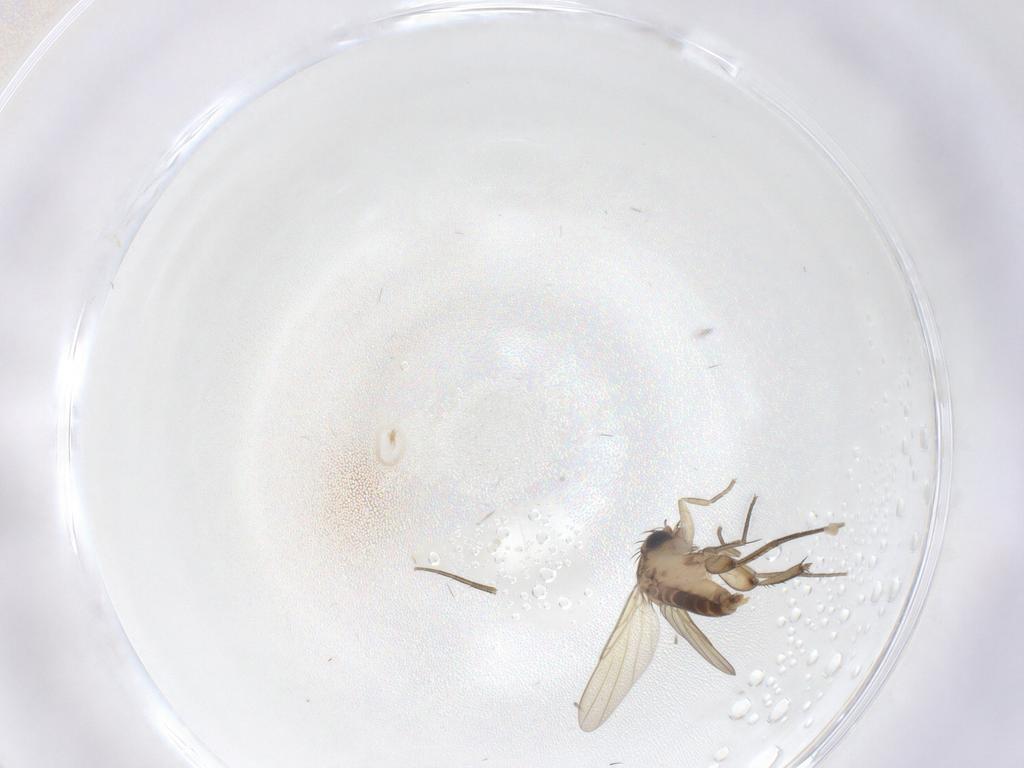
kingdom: Animalia
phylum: Arthropoda
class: Insecta
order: Diptera
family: Phoridae
